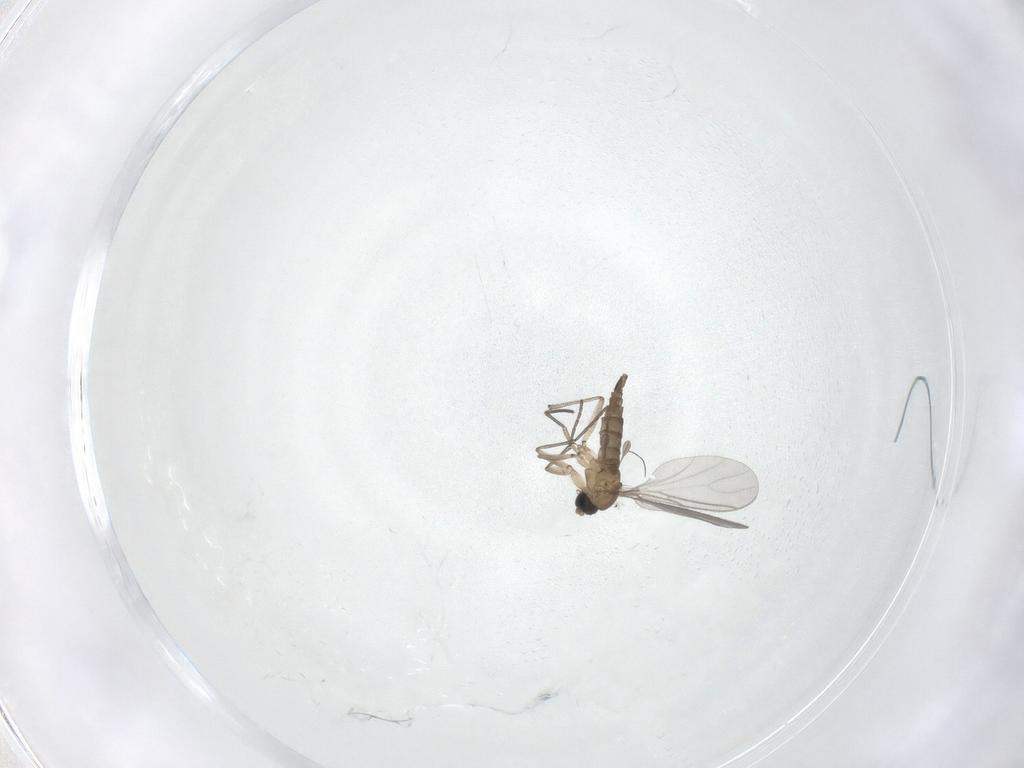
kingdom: Animalia
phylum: Arthropoda
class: Insecta
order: Diptera
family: Sciaridae
